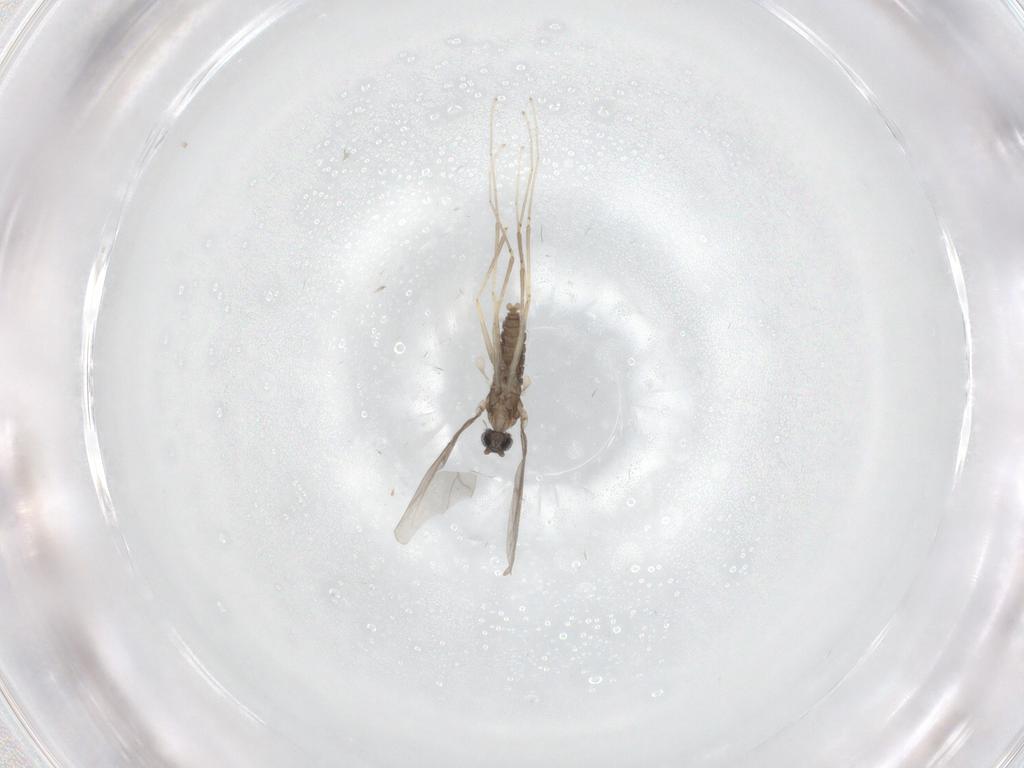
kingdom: Animalia
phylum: Arthropoda
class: Insecta
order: Diptera
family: Cecidomyiidae
